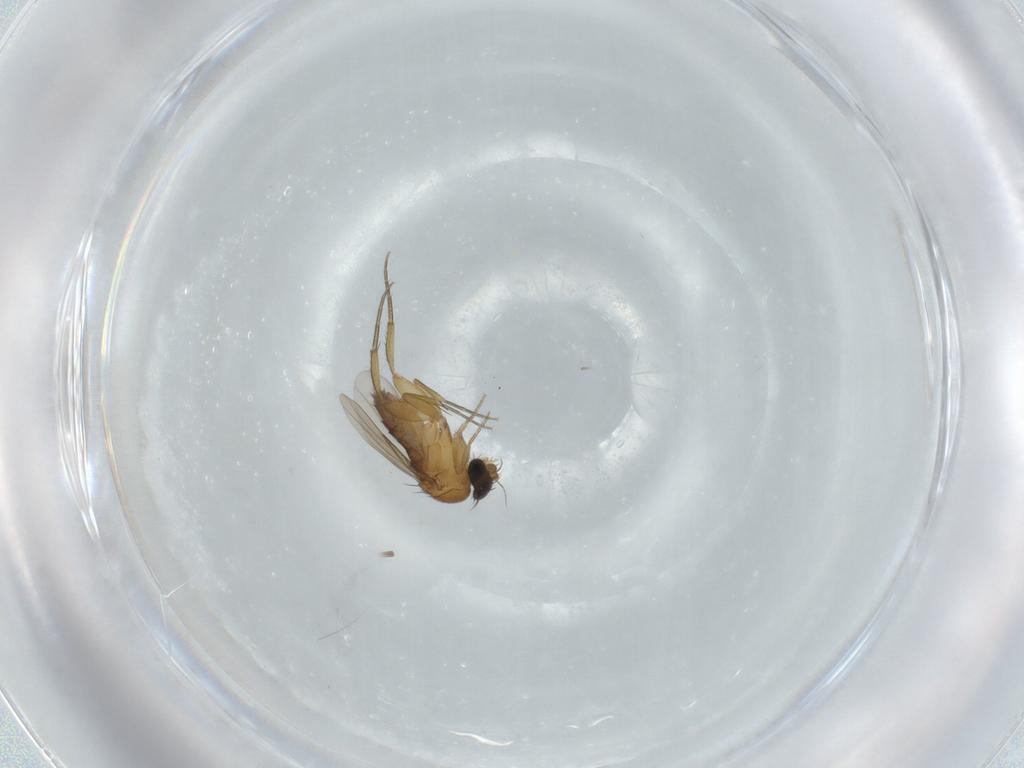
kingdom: Animalia
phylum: Arthropoda
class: Insecta
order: Diptera
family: Phoridae
